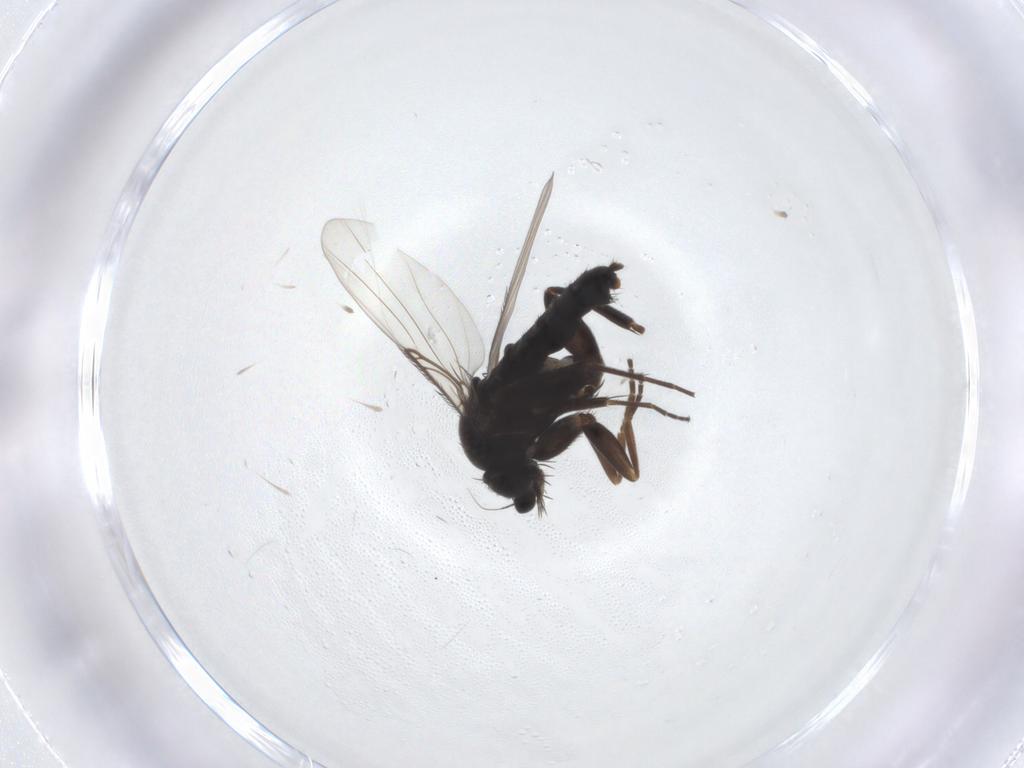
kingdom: Animalia
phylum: Arthropoda
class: Insecta
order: Diptera
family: Phoridae
